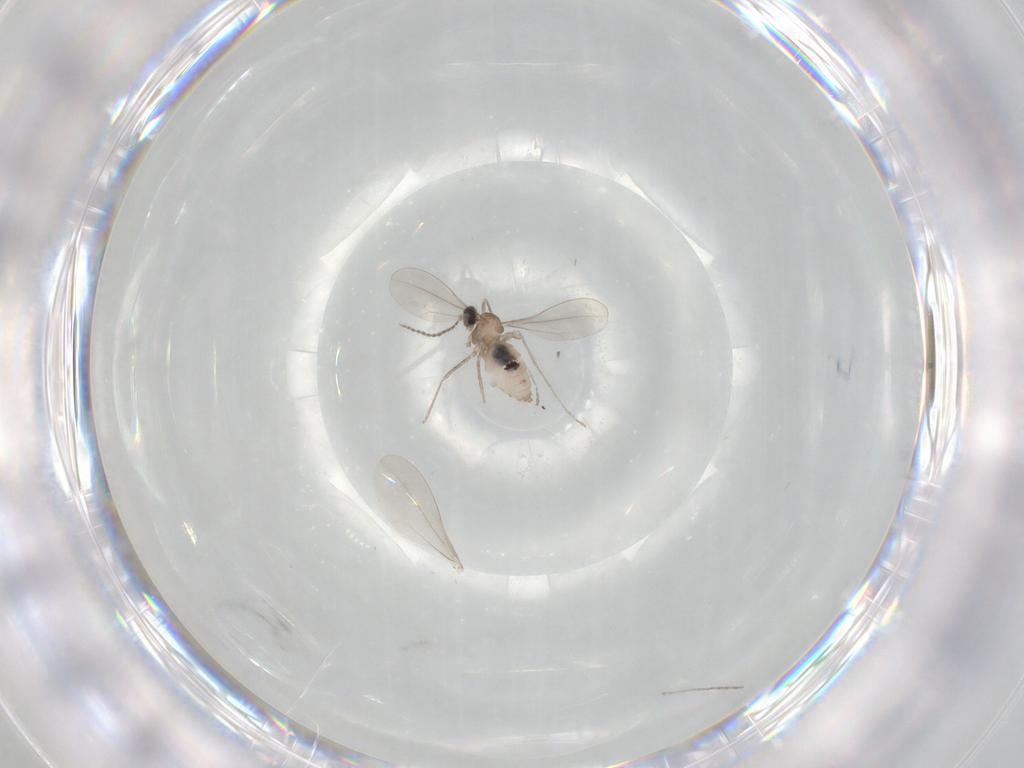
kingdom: Animalia
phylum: Arthropoda
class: Insecta
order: Diptera
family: Cecidomyiidae
